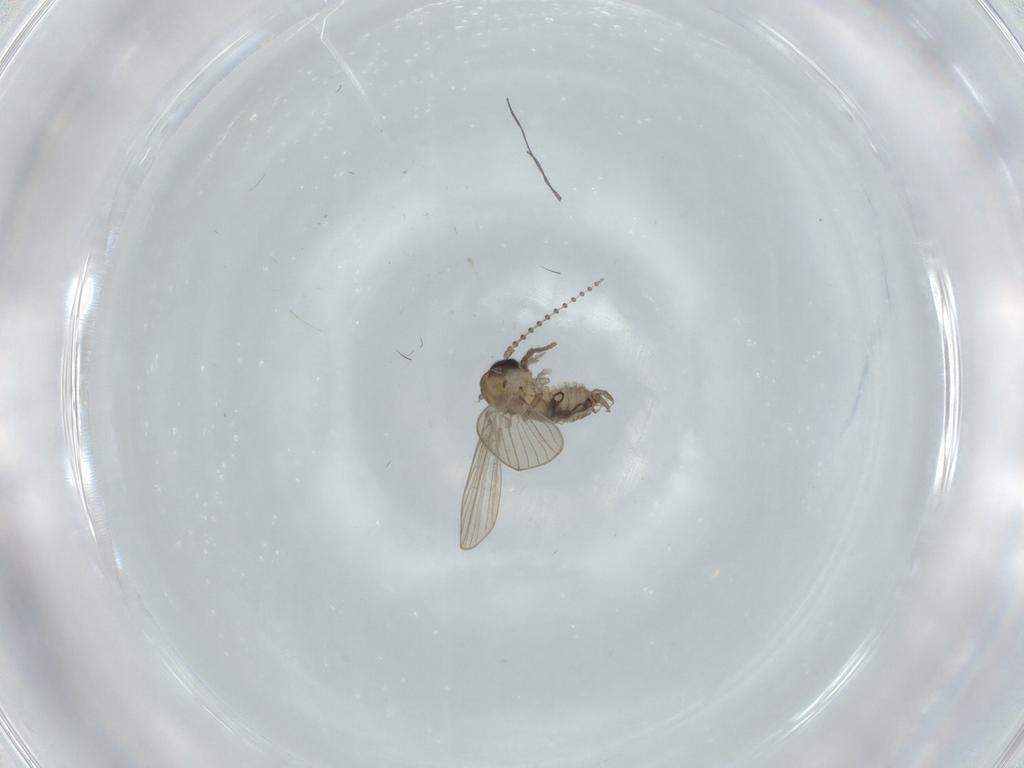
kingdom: Animalia
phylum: Arthropoda
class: Insecta
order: Diptera
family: Psychodidae
